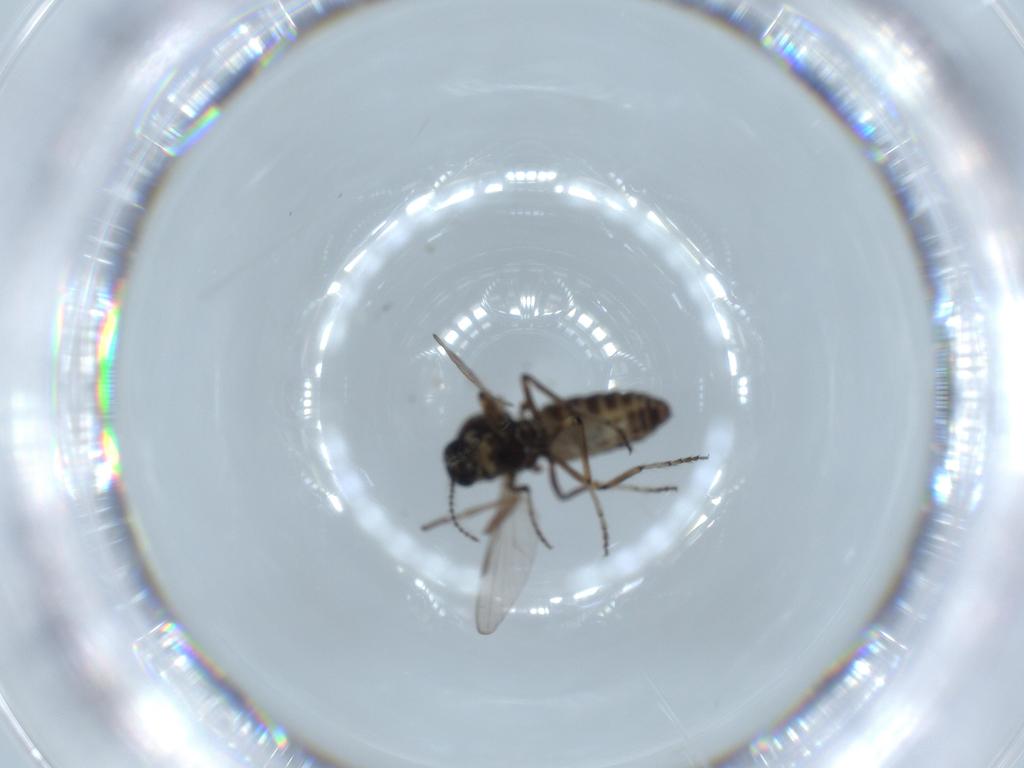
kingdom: Animalia
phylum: Arthropoda
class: Insecta
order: Diptera
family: Sciaridae
